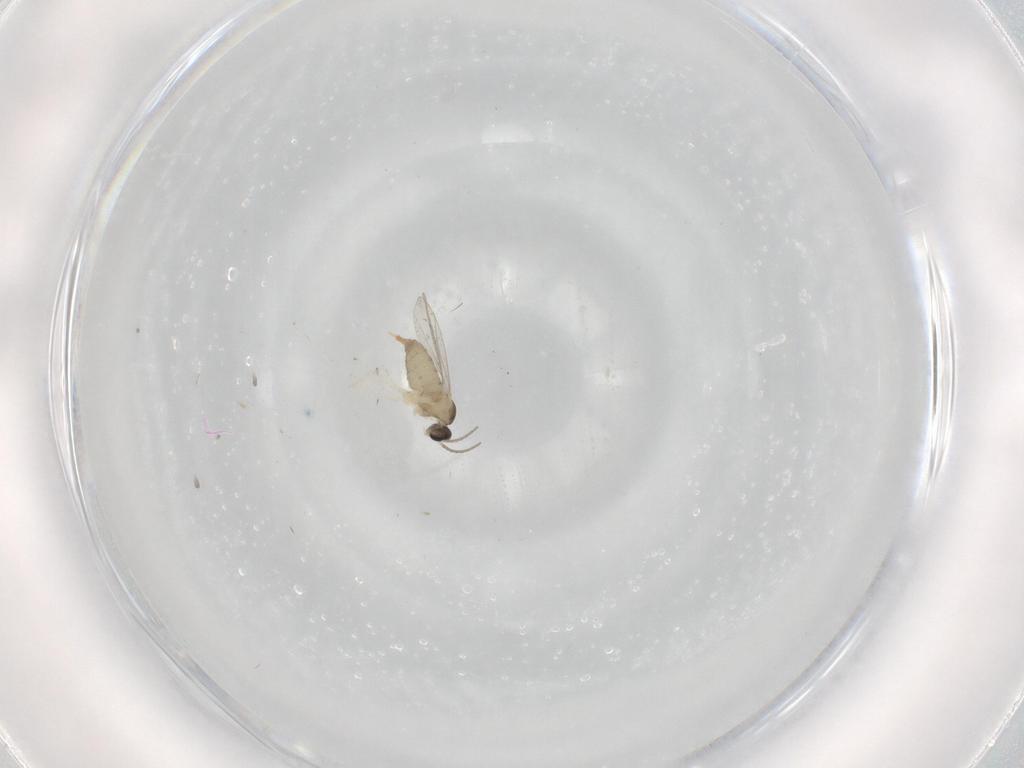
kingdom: Animalia
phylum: Arthropoda
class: Insecta
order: Diptera
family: Cecidomyiidae
